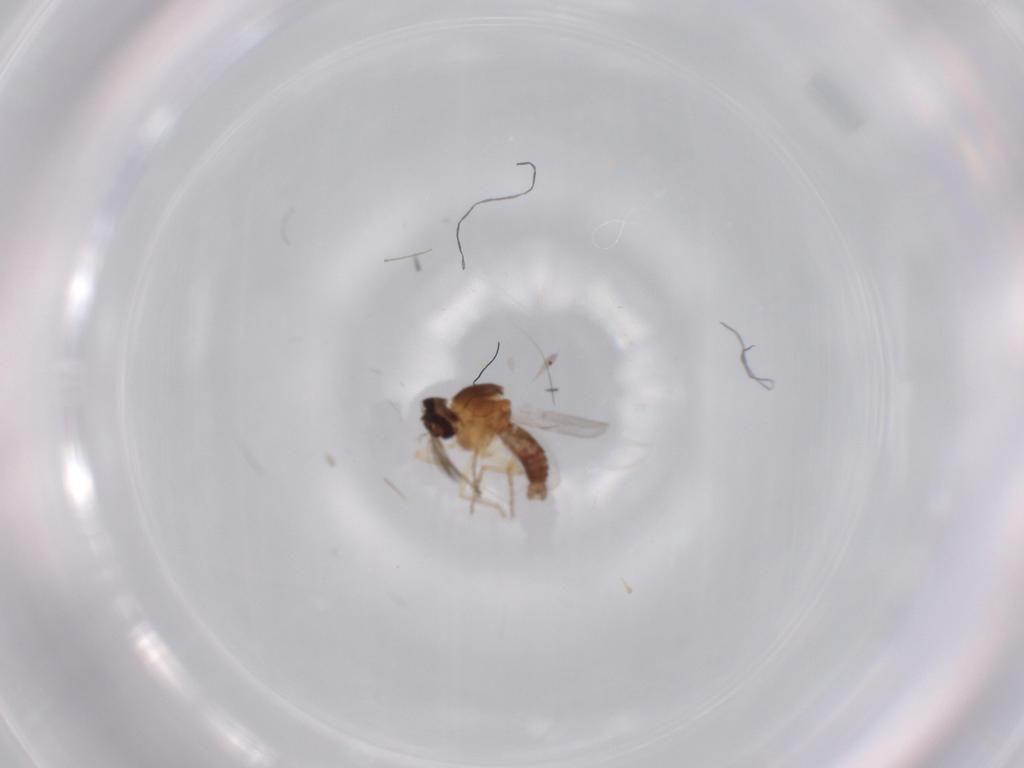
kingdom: Animalia
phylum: Arthropoda
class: Insecta
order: Diptera
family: Ceratopogonidae
